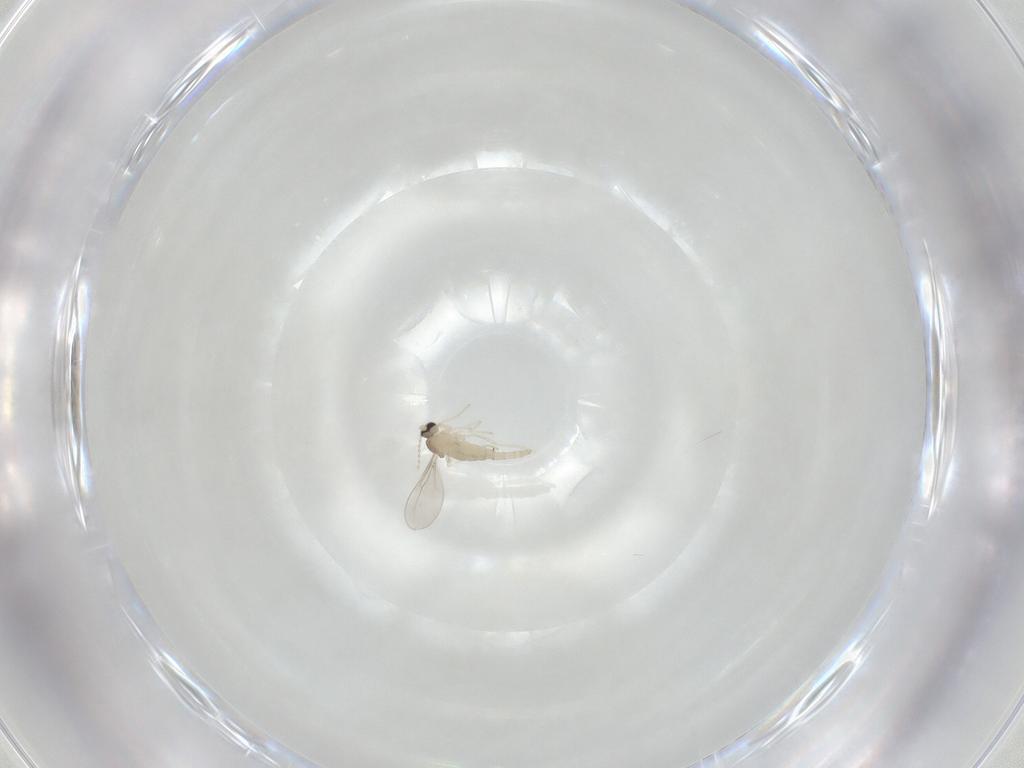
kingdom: Animalia
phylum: Arthropoda
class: Insecta
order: Diptera
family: Cecidomyiidae
